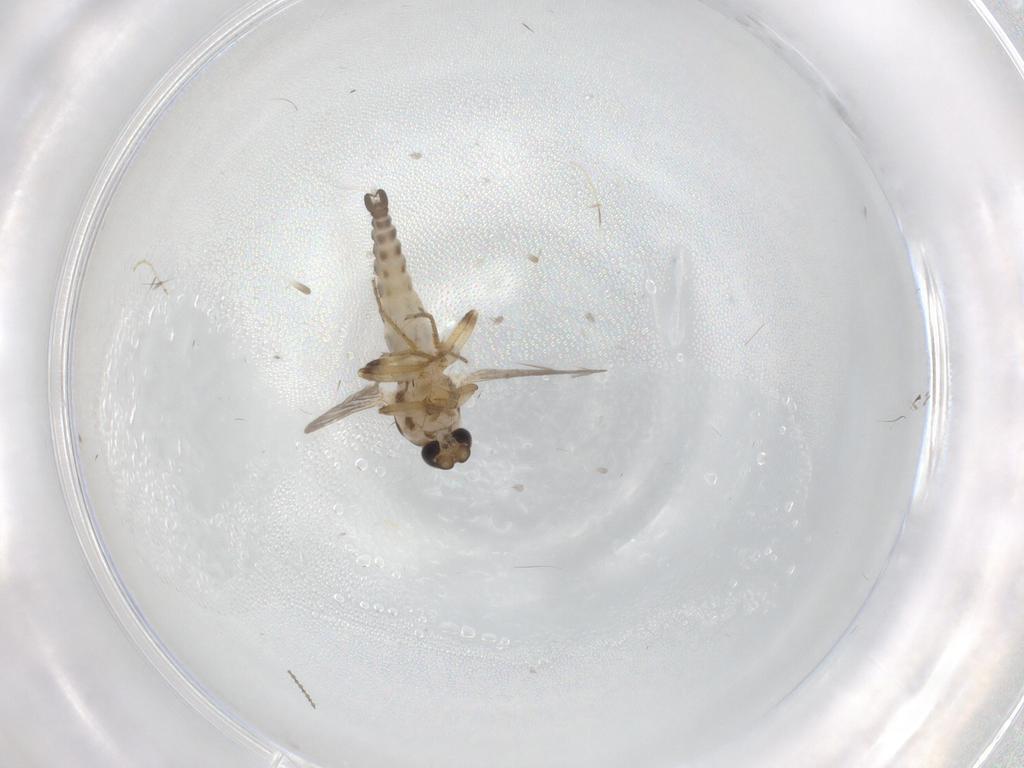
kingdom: Animalia
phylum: Arthropoda
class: Insecta
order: Diptera
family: Ceratopogonidae
